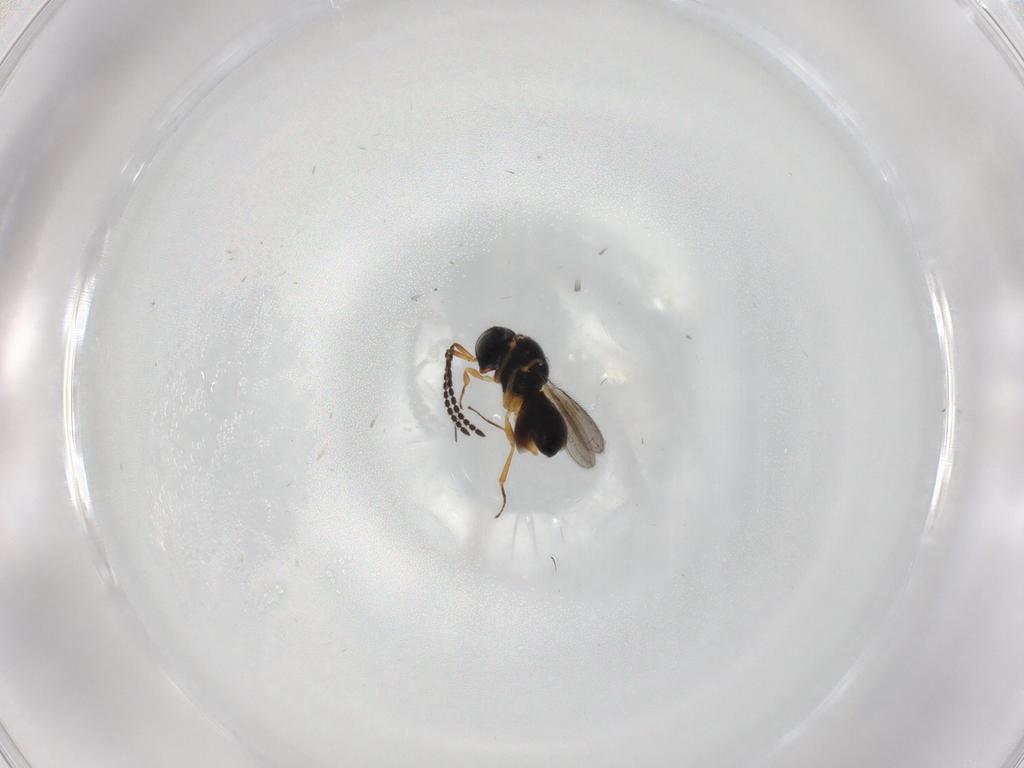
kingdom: Animalia
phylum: Arthropoda
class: Insecta
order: Hymenoptera
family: Scelionidae
